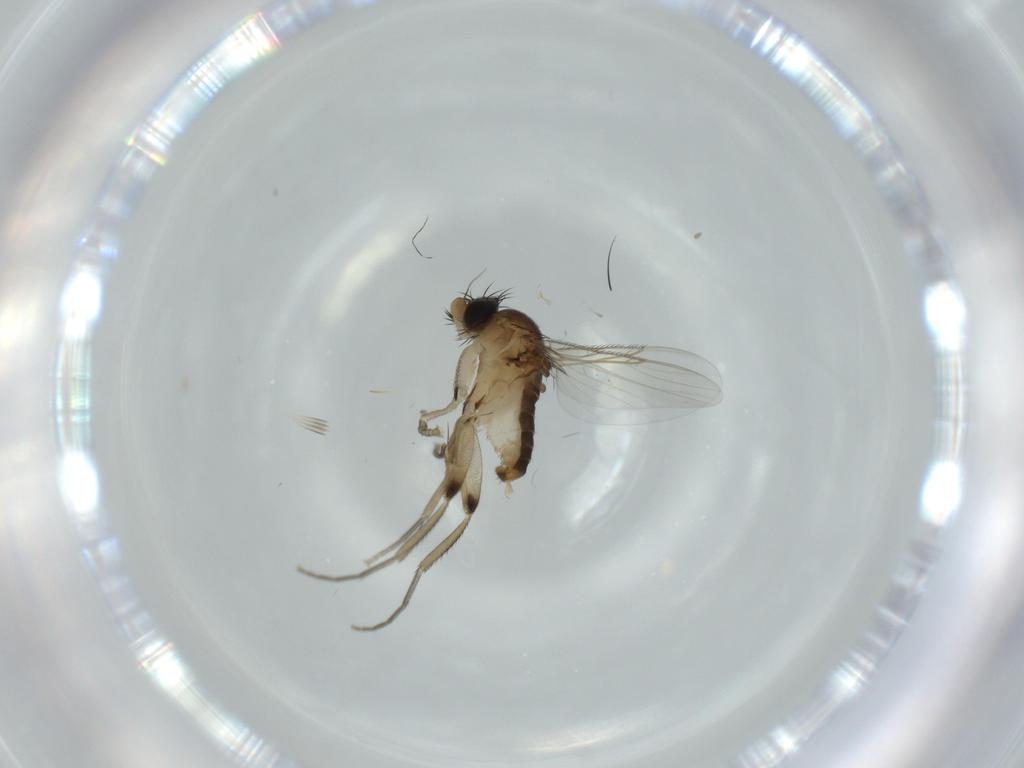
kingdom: Animalia
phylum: Arthropoda
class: Insecta
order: Diptera
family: Phoridae
